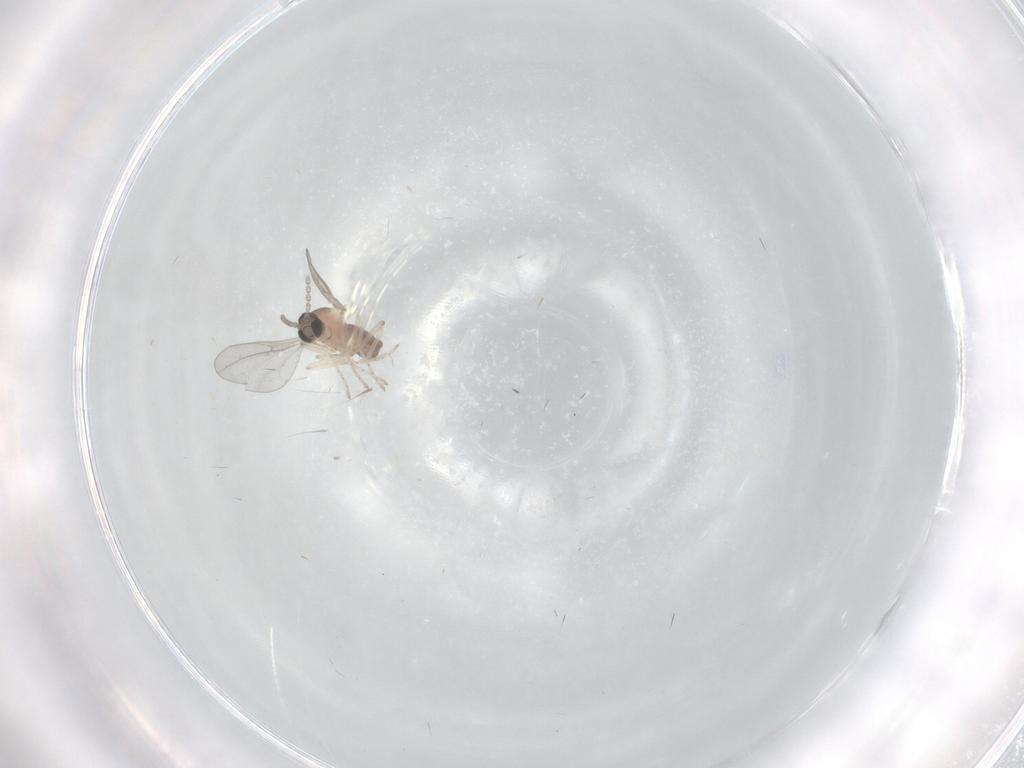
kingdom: Animalia
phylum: Arthropoda
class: Insecta
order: Diptera
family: Cecidomyiidae
